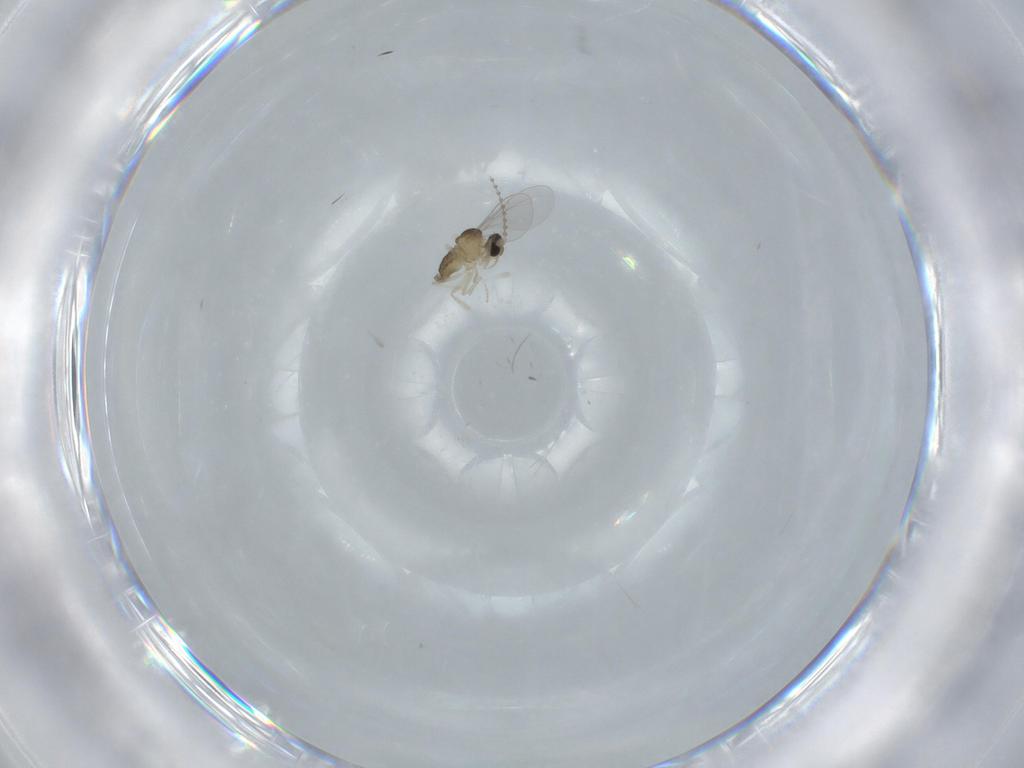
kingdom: Animalia
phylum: Arthropoda
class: Insecta
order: Diptera
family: Cecidomyiidae
